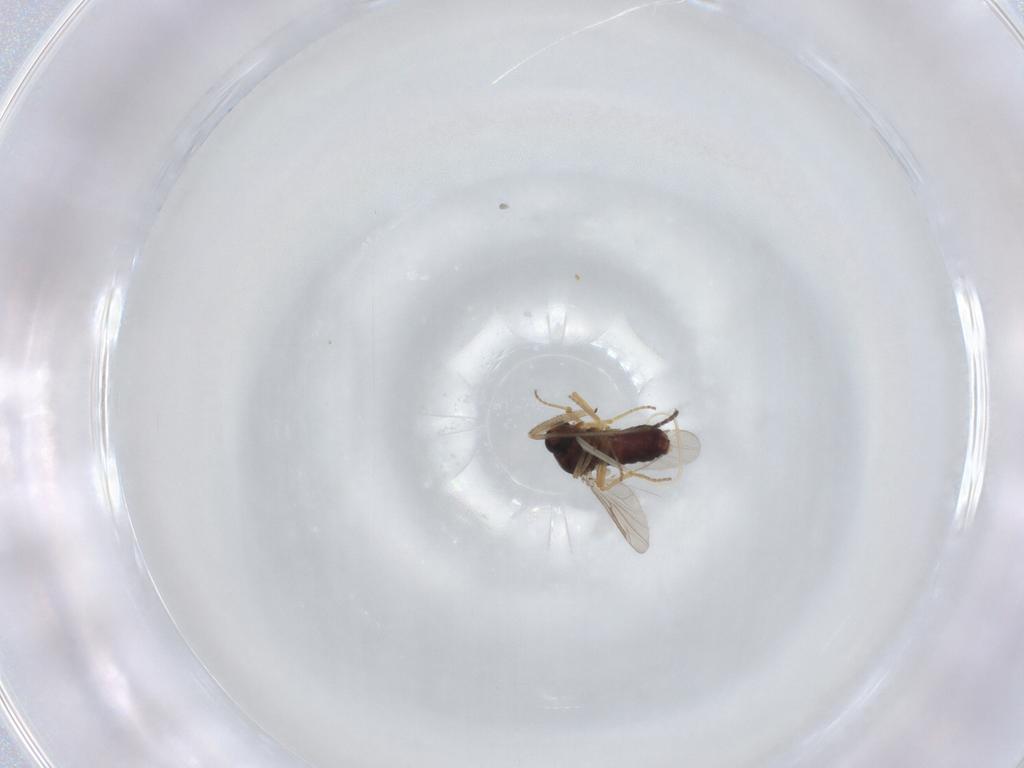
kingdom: Animalia
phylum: Arthropoda
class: Insecta
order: Diptera
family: Ceratopogonidae
